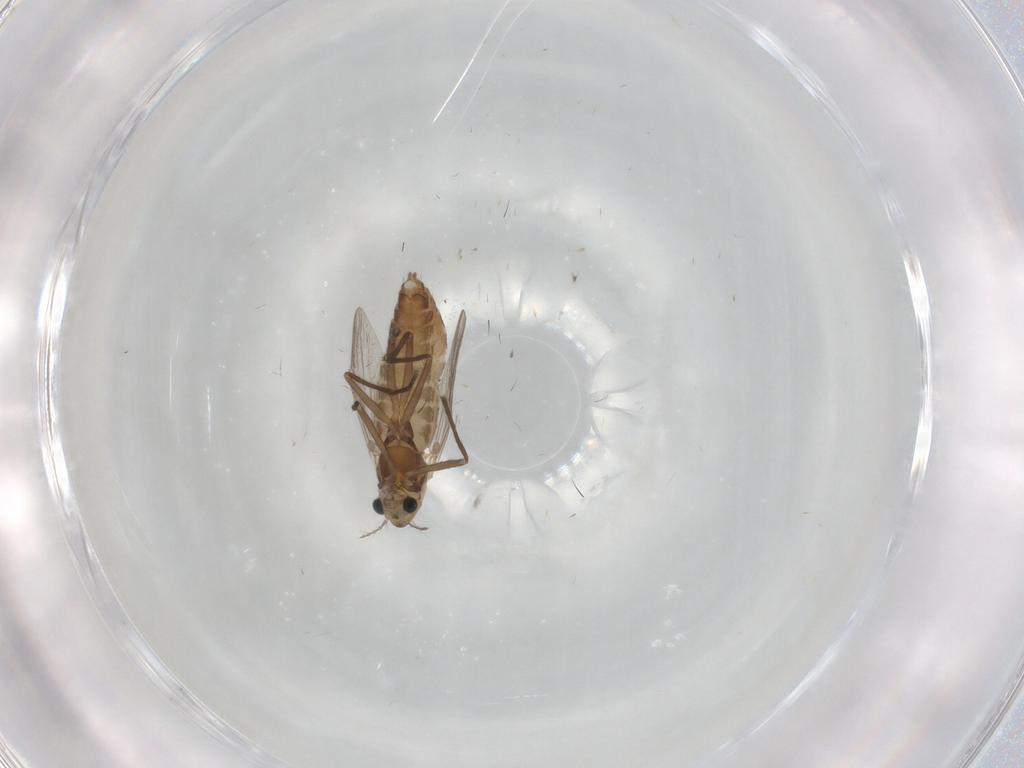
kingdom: Animalia
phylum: Arthropoda
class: Insecta
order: Diptera
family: Chironomidae
